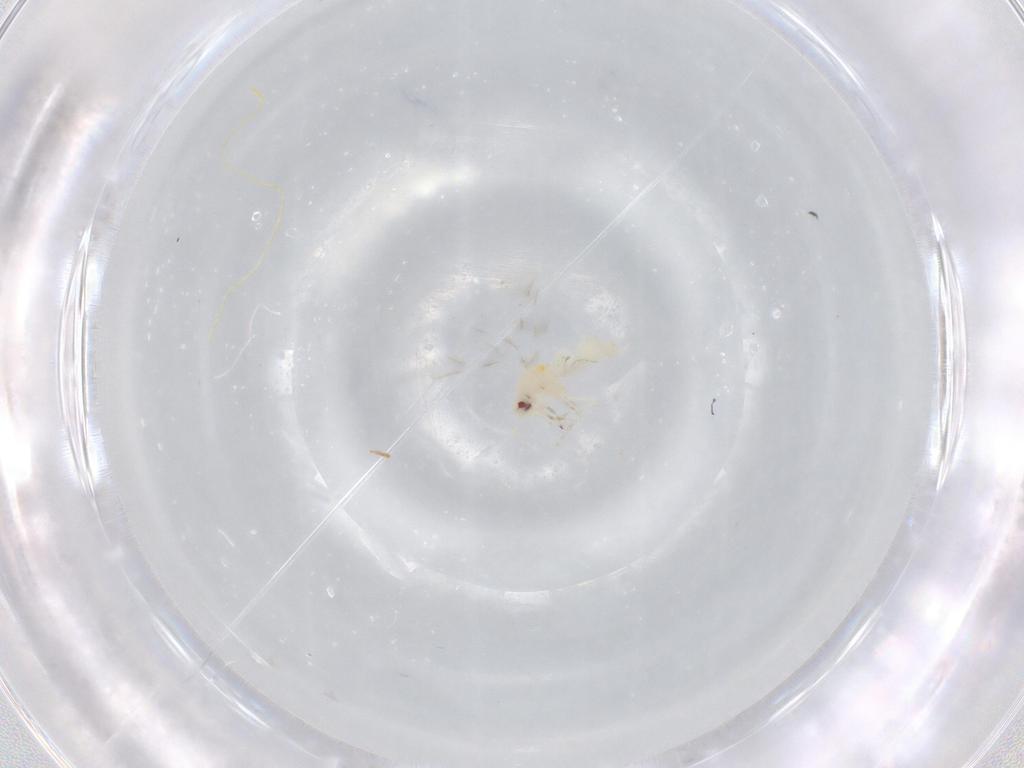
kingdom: Animalia
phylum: Arthropoda
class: Insecta
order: Hemiptera
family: Aleyrodidae
